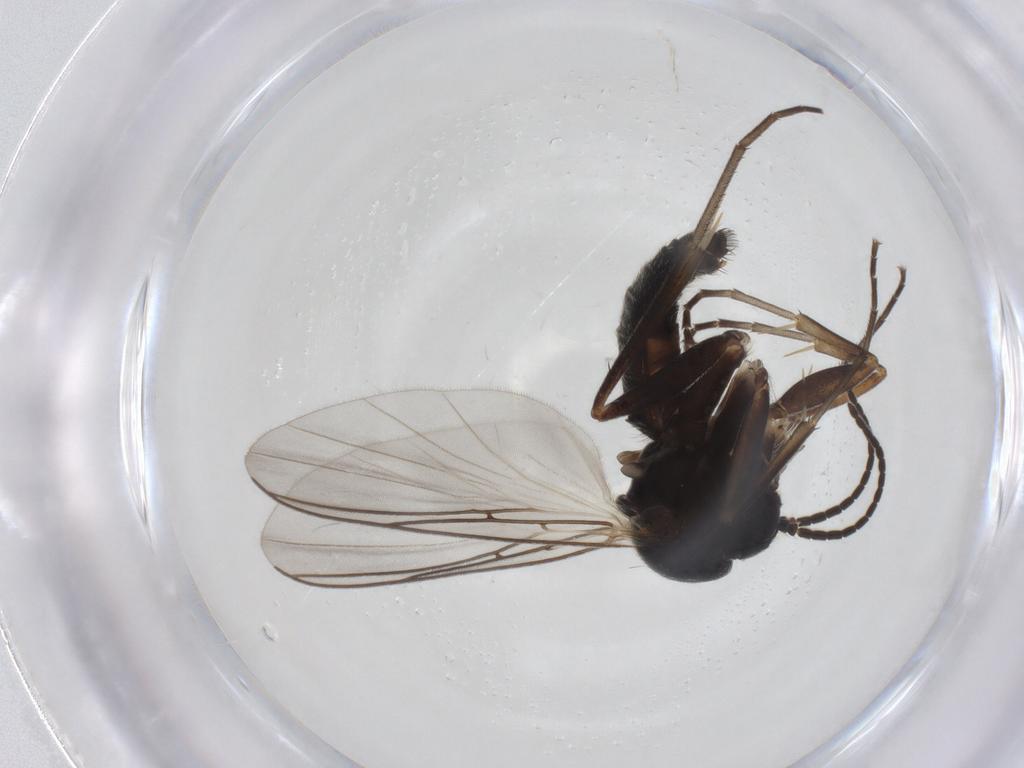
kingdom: Animalia
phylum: Arthropoda
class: Insecta
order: Diptera
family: Mycetophilidae
